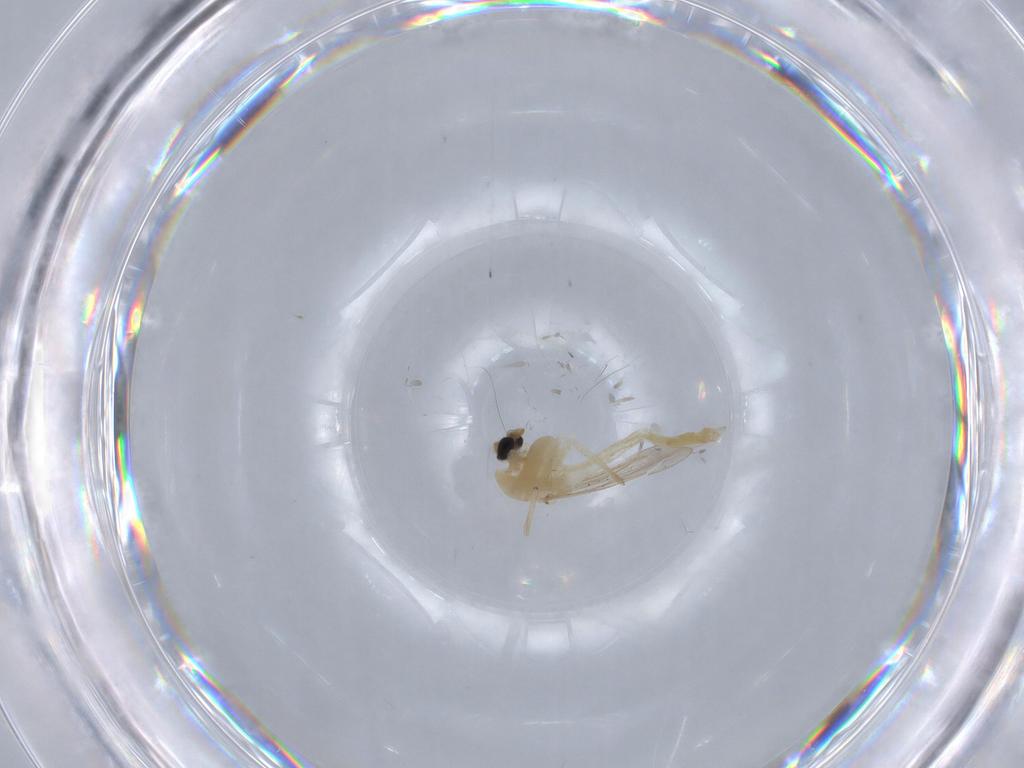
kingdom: Animalia
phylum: Arthropoda
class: Insecta
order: Diptera
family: Chironomidae
